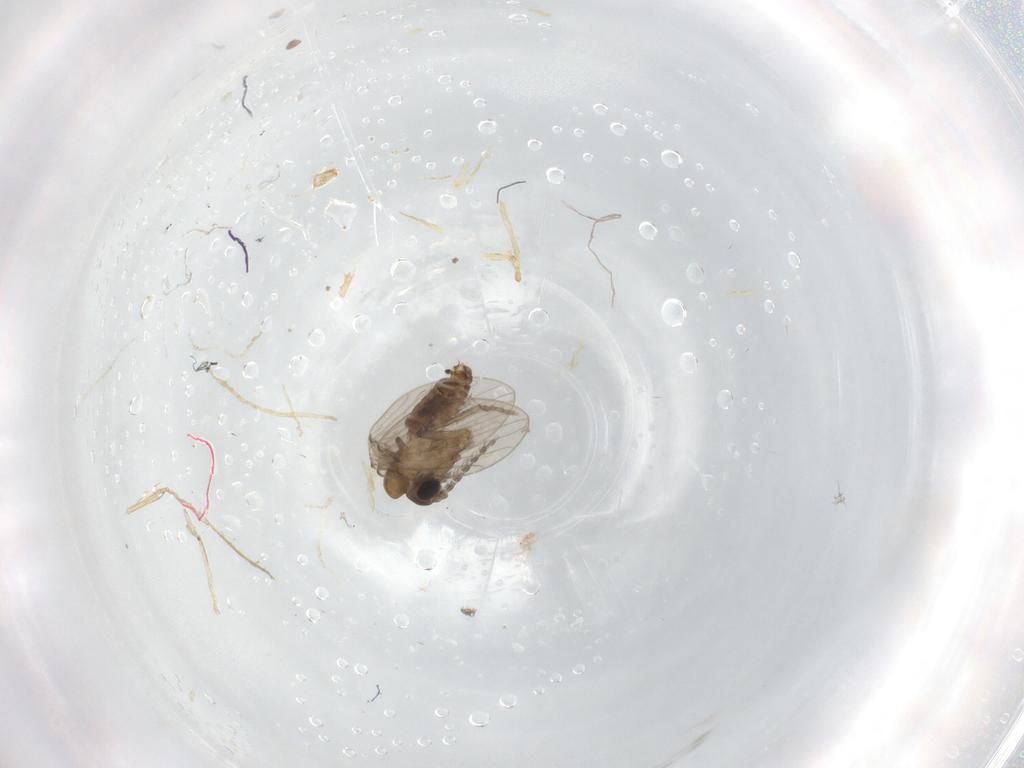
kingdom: Animalia
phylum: Arthropoda
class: Insecta
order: Diptera
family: Psychodidae
